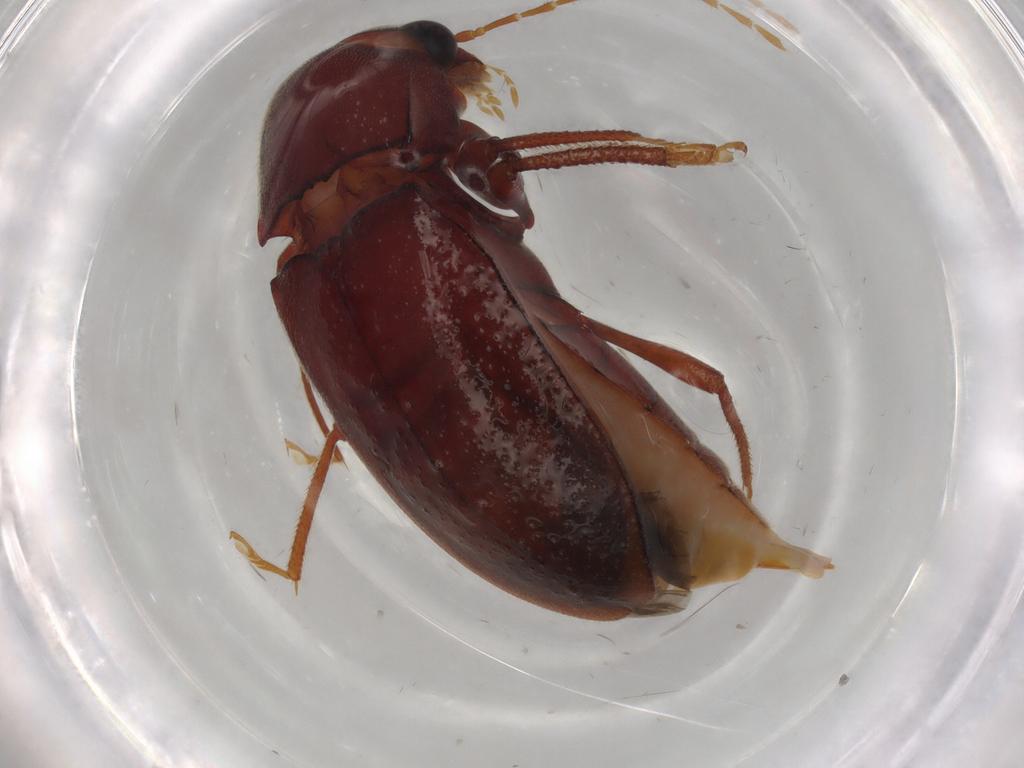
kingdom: Animalia
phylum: Arthropoda
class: Insecta
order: Coleoptera
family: Ptilodactylidae
